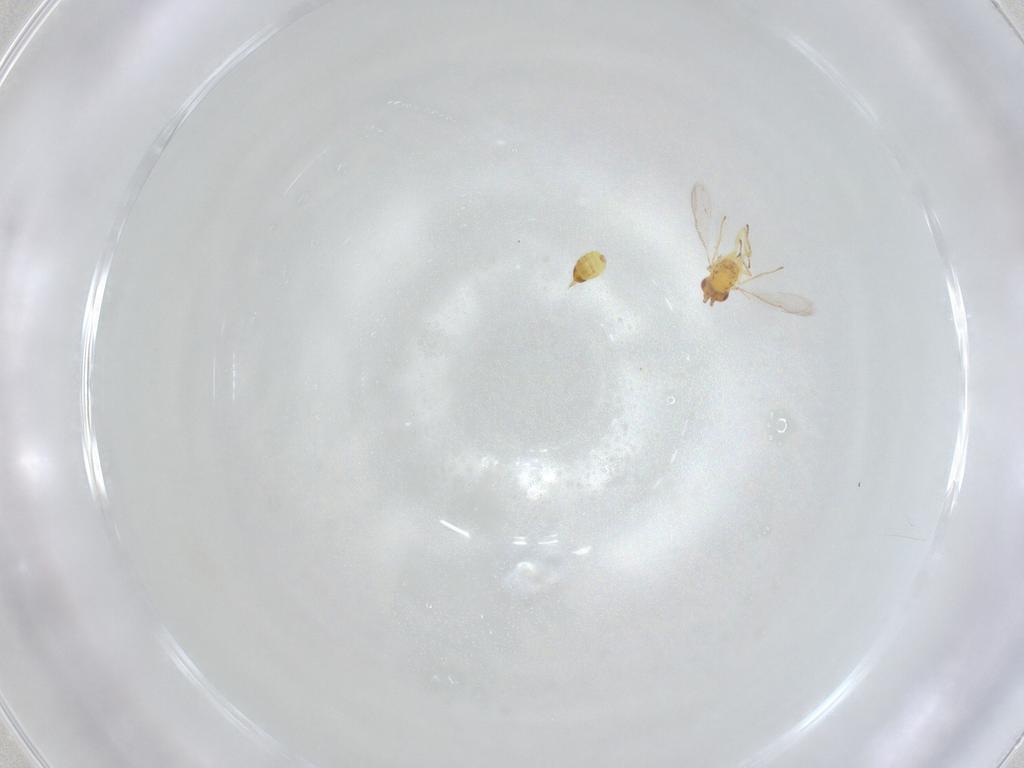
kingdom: Animalia
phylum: Arthropoda
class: Insecta
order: Hymenoptera
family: Eulophidae
